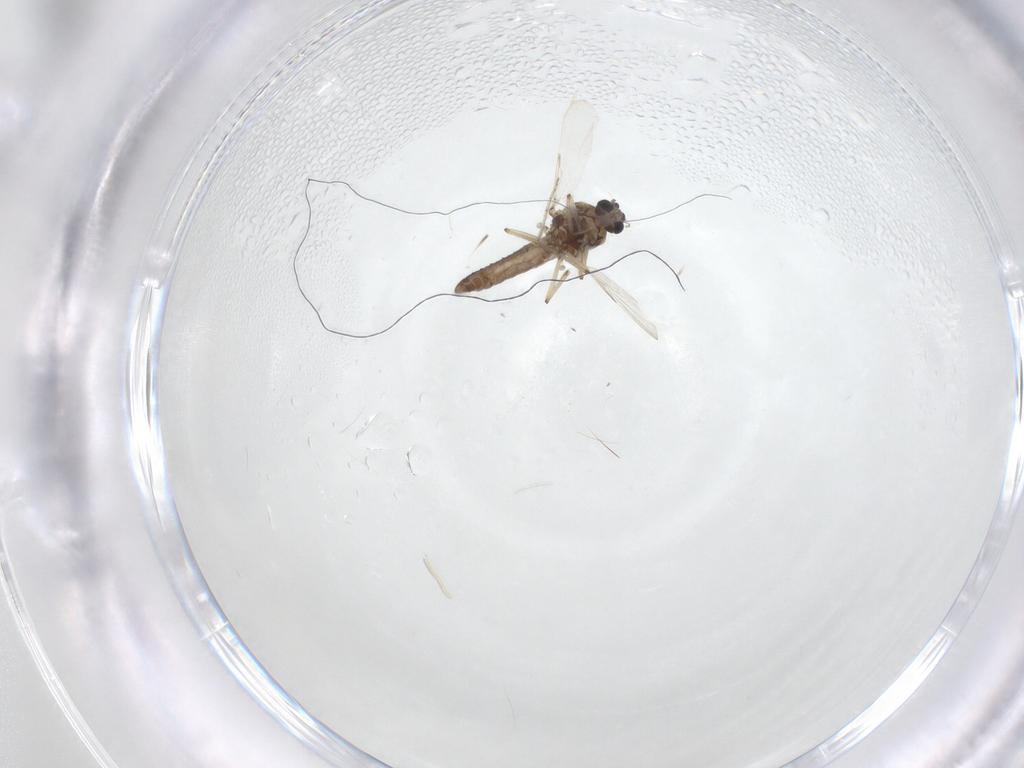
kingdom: Animalia
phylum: Arthropoda
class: Insecta
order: Diptera
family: Ceratopogonidae
